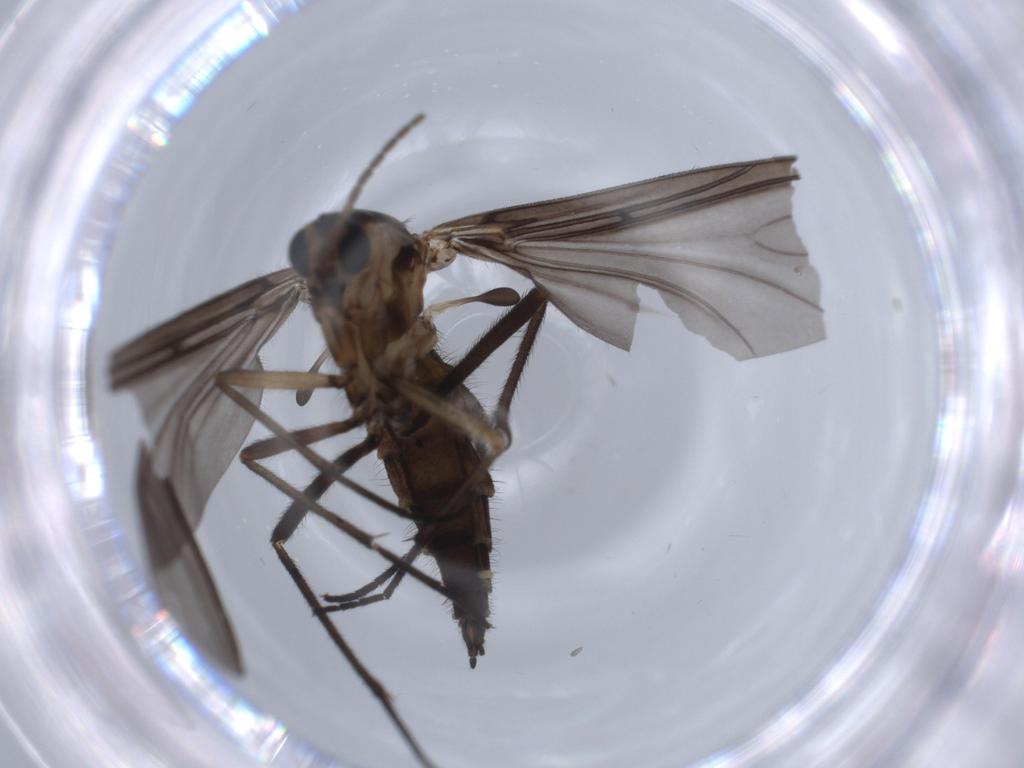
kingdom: Animalia
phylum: Arthropoda
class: Insecta
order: Diptera
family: Sciaridae
